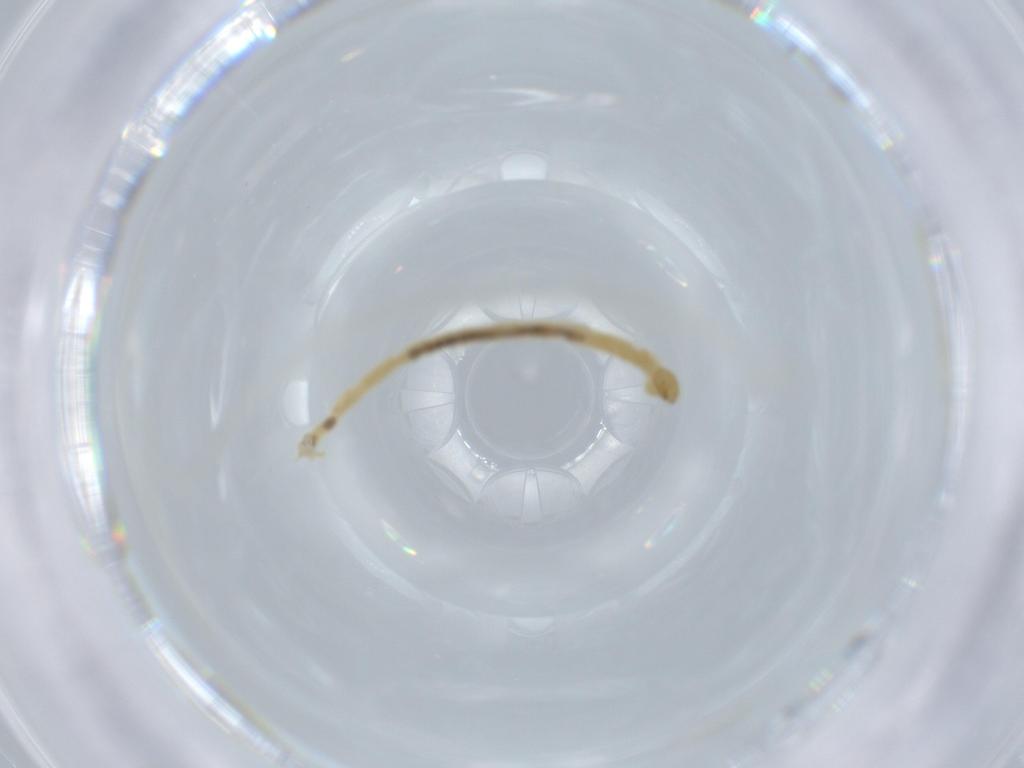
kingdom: Animalia
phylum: Arthropoda
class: Insecta
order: Diptera
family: Chironomidae
